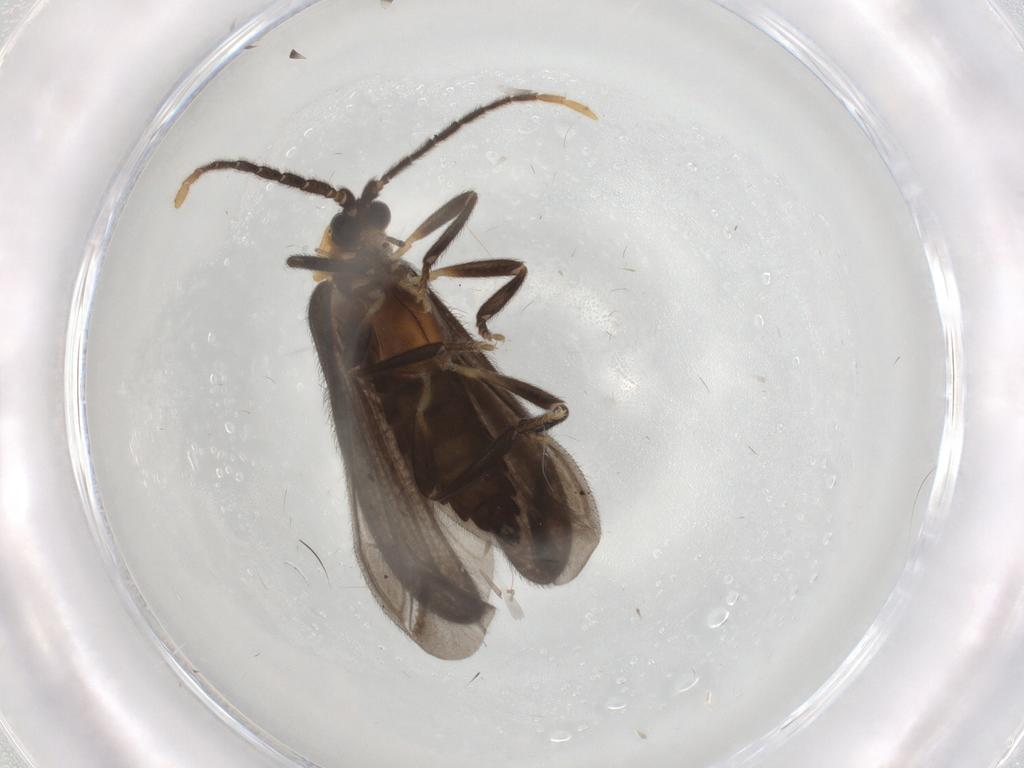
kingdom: Animalia
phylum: Arthropoda
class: Insecta
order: Coleoptera
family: Lycidae
